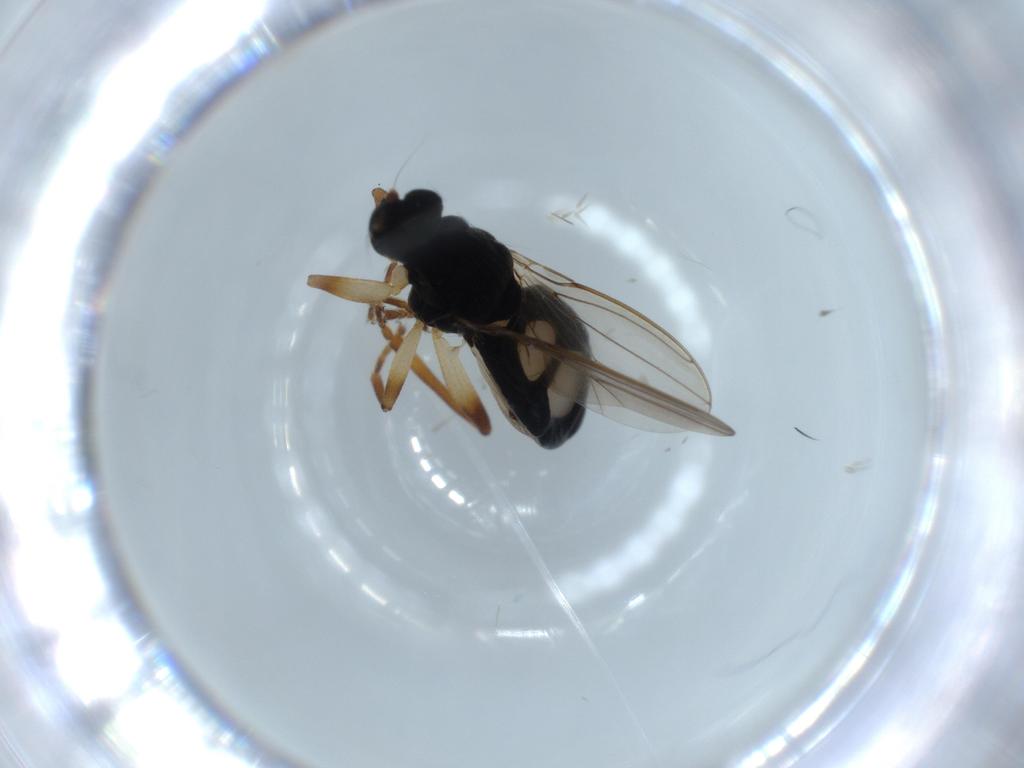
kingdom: Animalia
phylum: Arthropoda
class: Insecta
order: Diptera
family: Sphaeroceridae
